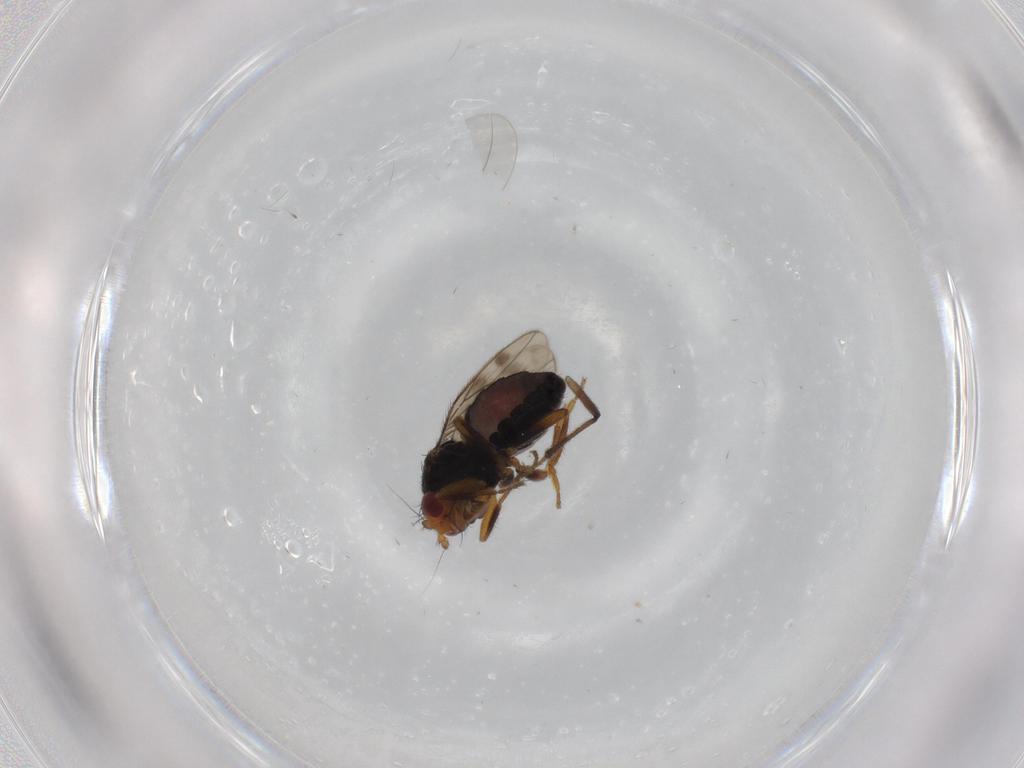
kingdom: Animalia
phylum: Arthropoda
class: Insecta
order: Diptera
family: Sphaeroceridae
